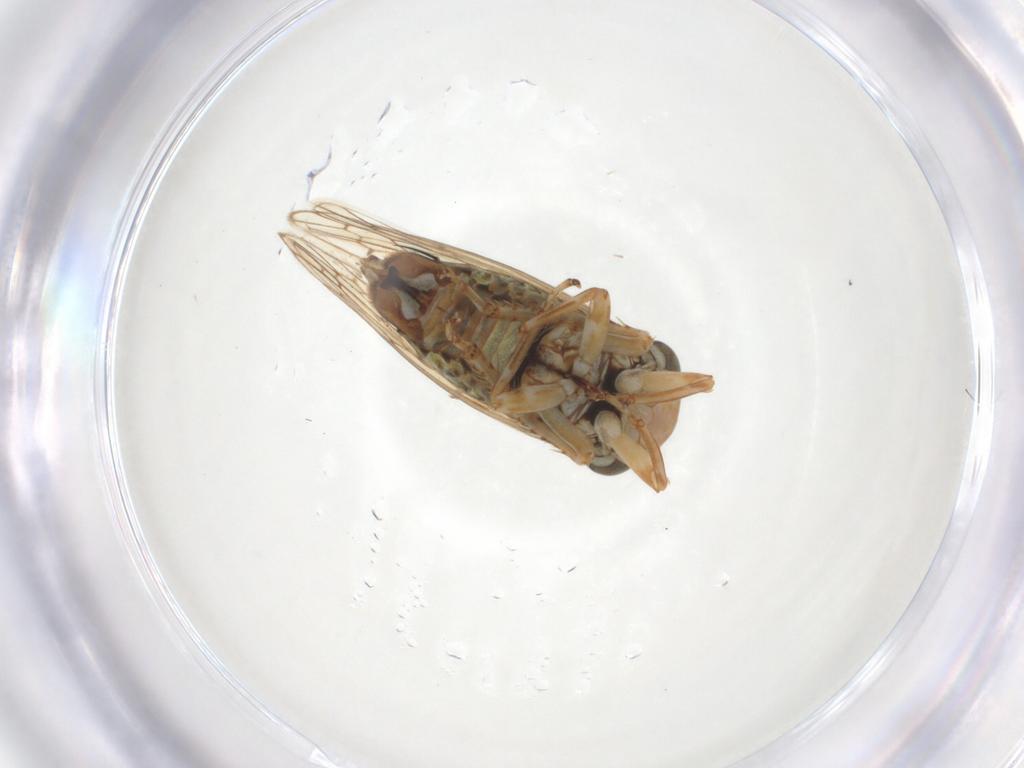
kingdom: Animalia
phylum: Arthropoda
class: Insecta
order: Hemiptera
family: Cicadellidae
